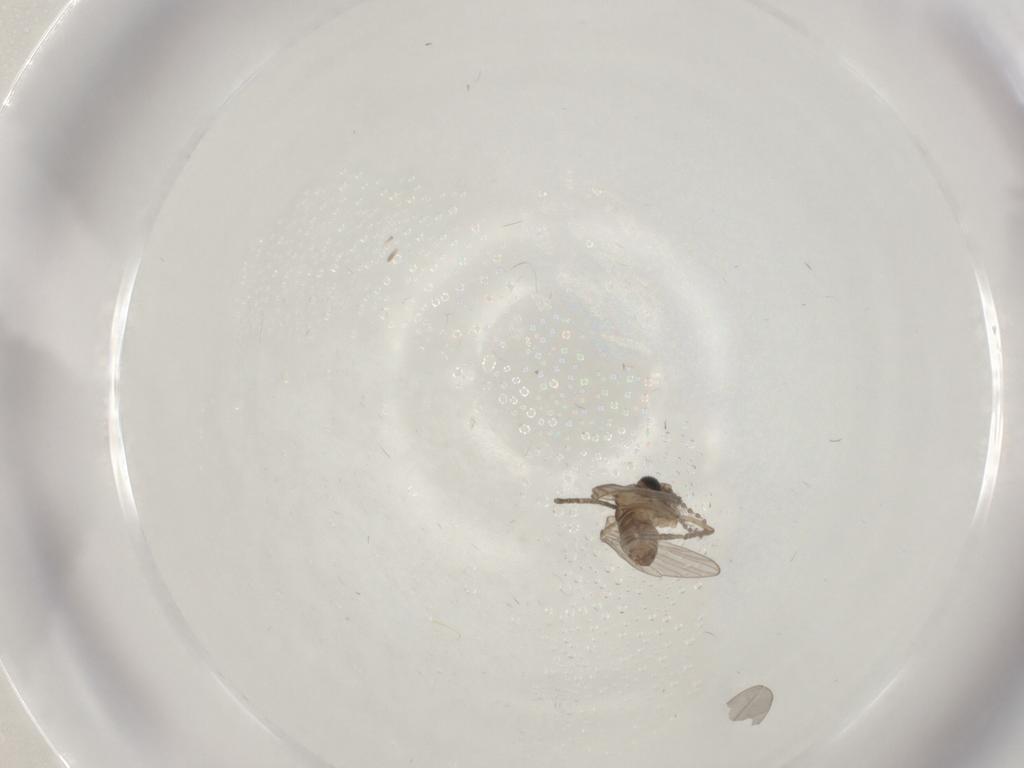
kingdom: Animalia
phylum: Arthropoda
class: Insecta
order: Diptera
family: Psychodidae
